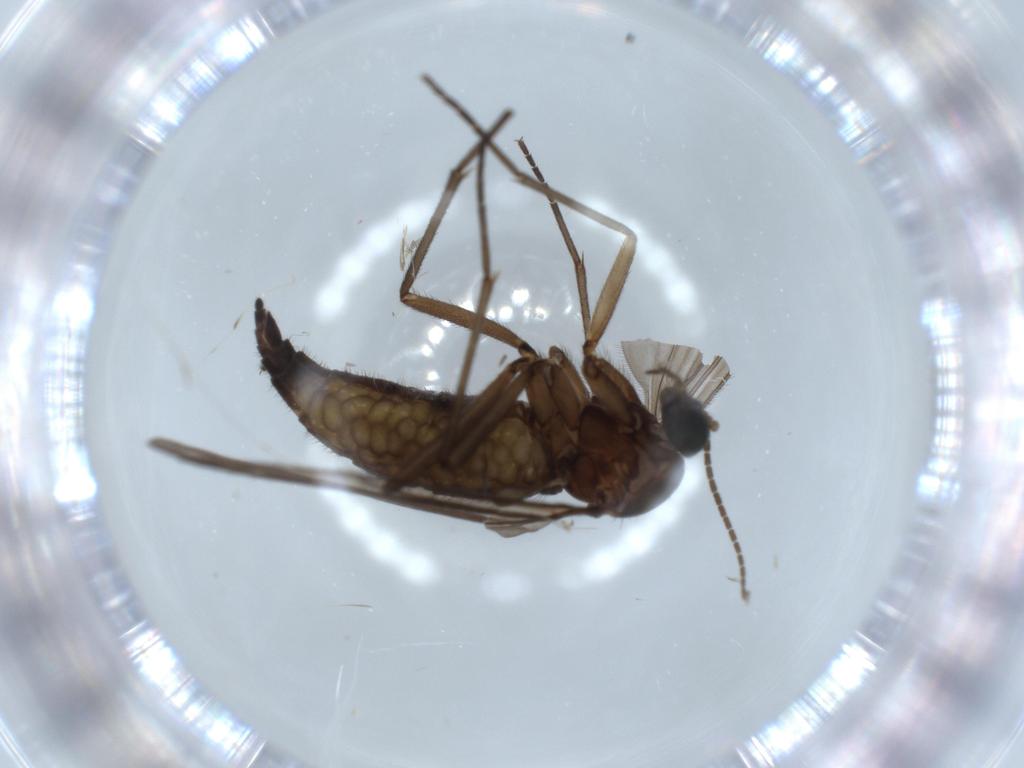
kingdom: Animalia
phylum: Arthropoda
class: Insecta
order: Diptera
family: Sciaridae
